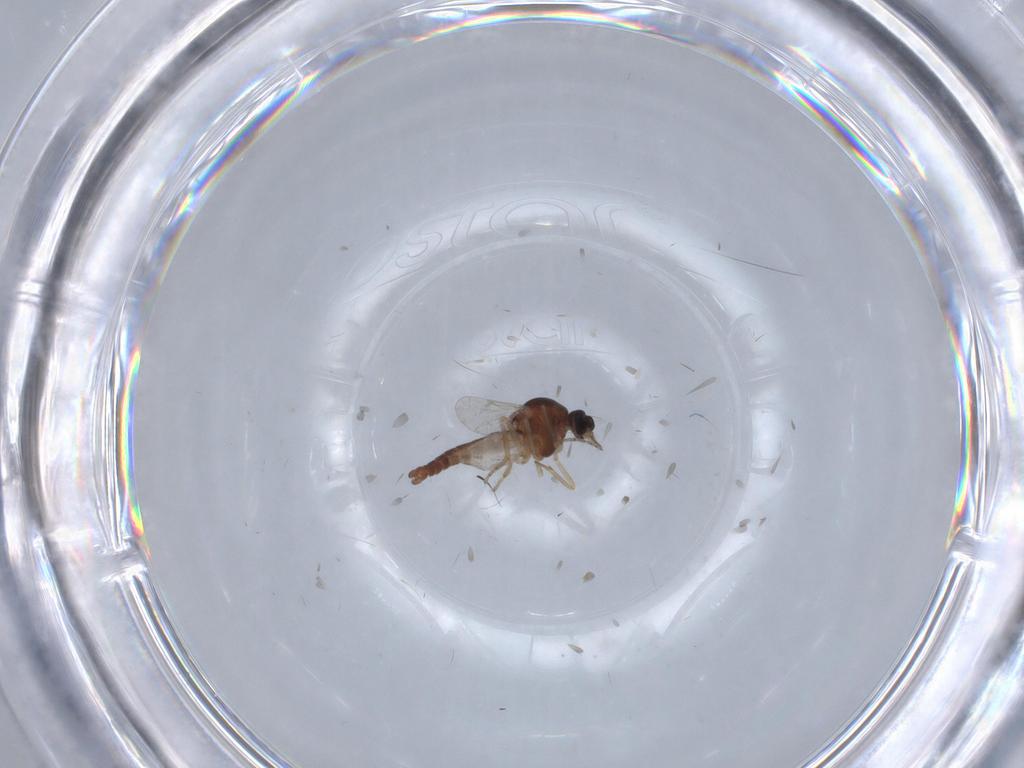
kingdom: Animalia
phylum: Arthropoda
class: Insecta
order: Diptera
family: Ceratopogonidae
